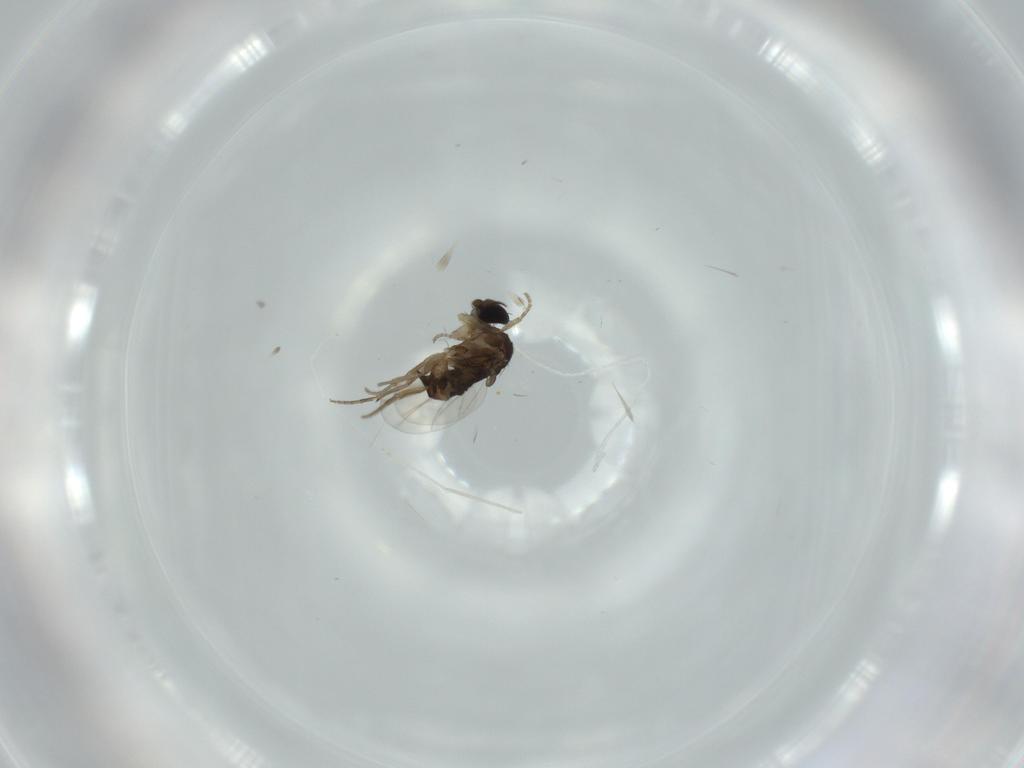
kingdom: Animalia
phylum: Arthropoda
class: Insecta
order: Diptera
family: Phoridae
